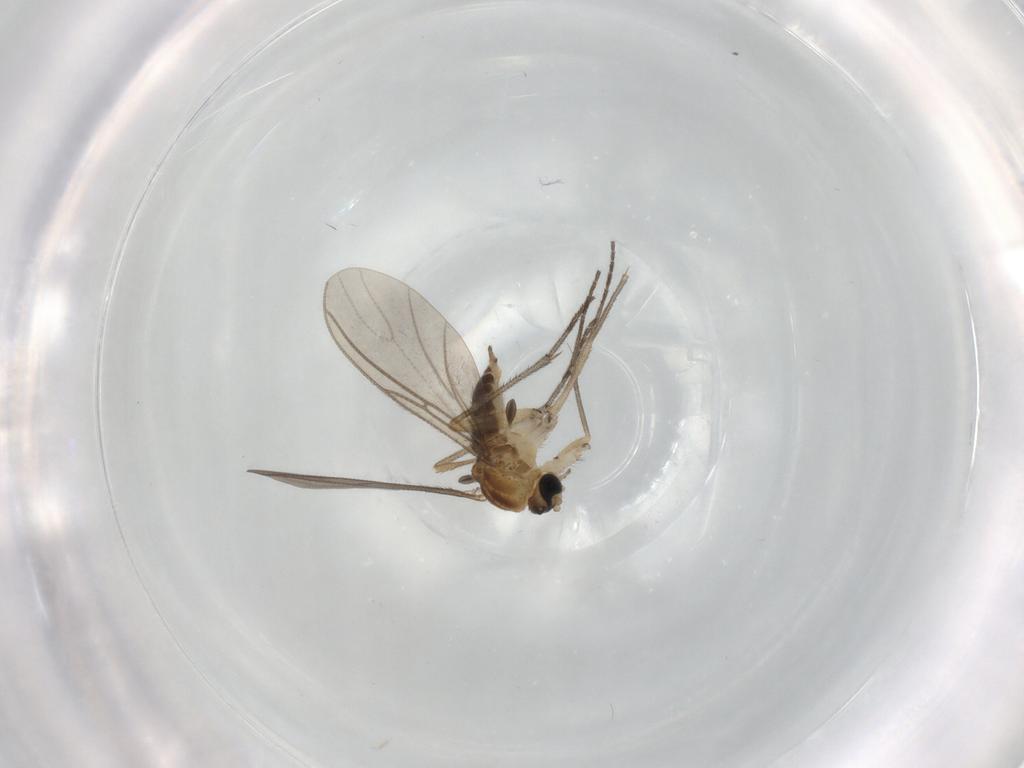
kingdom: Animalia
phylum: Arthropoda
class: Insecta
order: Diptera
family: Sciaridae
